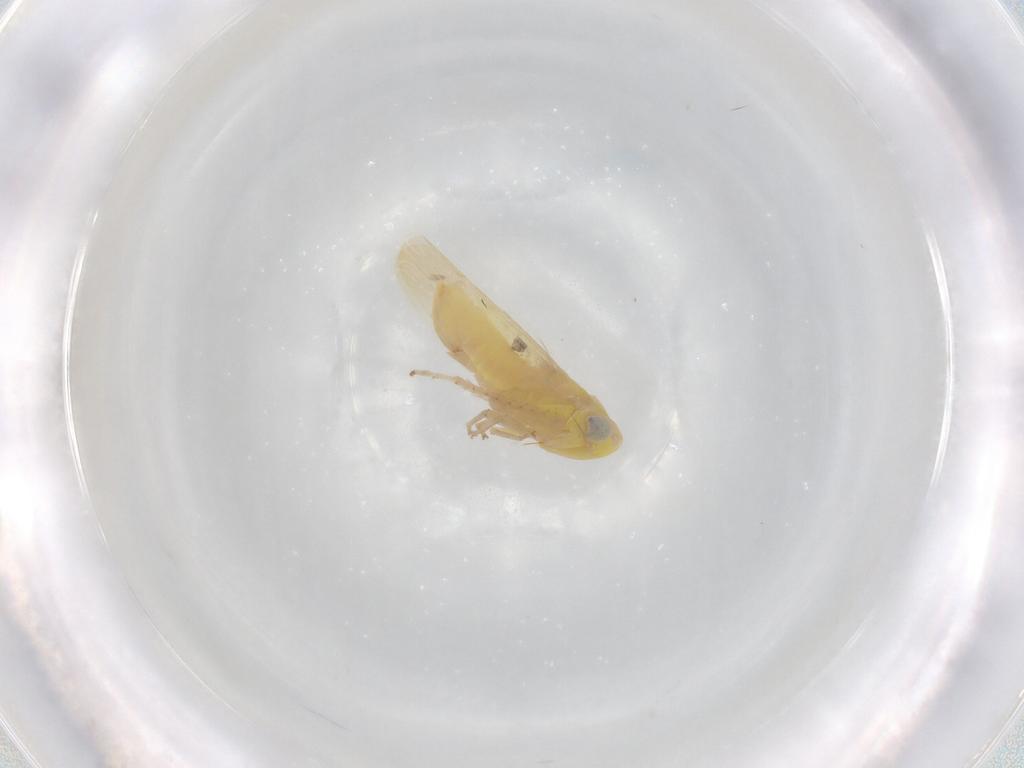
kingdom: Animalia
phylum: Arthropoda
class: Insecta
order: Hemiptera
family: Cicadellidae
